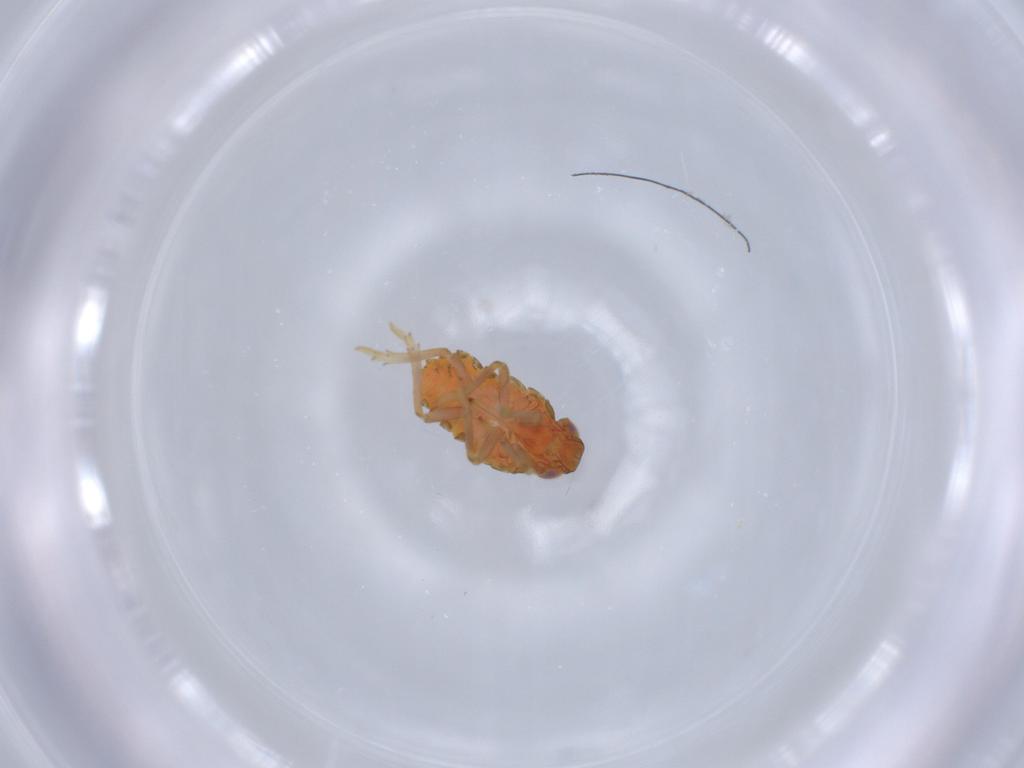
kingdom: Animalia
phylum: Arthropoda
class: Insecta
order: Hemiptera
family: Issidae
